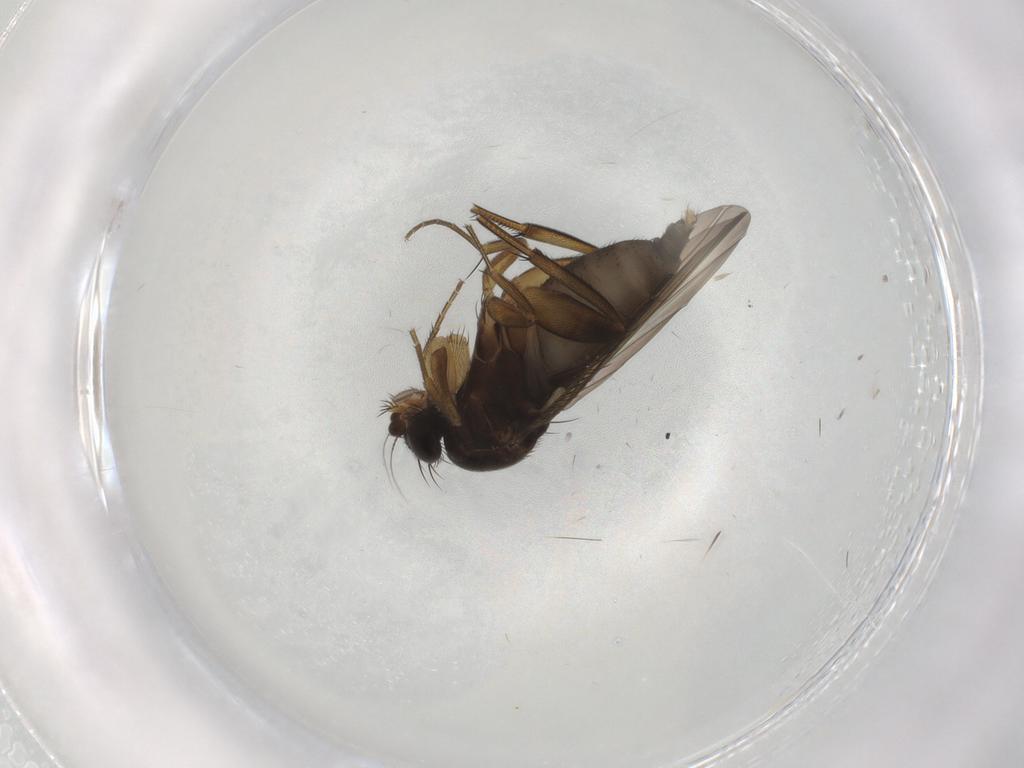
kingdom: Animalia
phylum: Arthropoda
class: Insecta
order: Diptera
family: Phoridae
